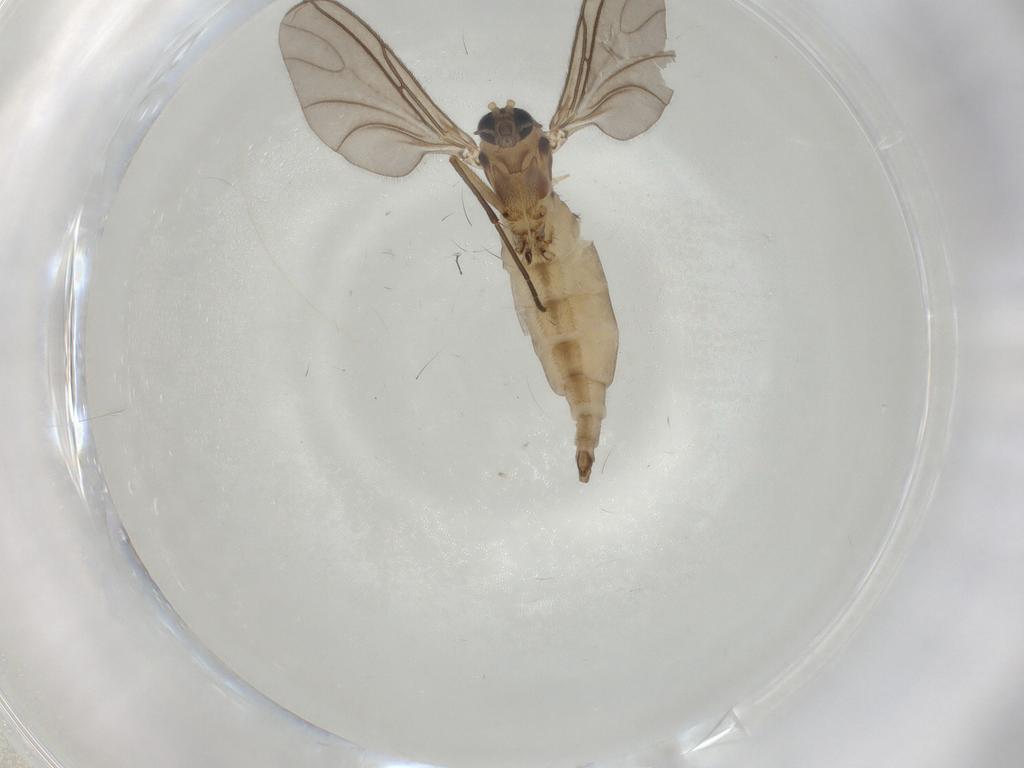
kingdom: Animalia
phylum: Arthropoda
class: Insecta
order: Diptera
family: Sciaridae
